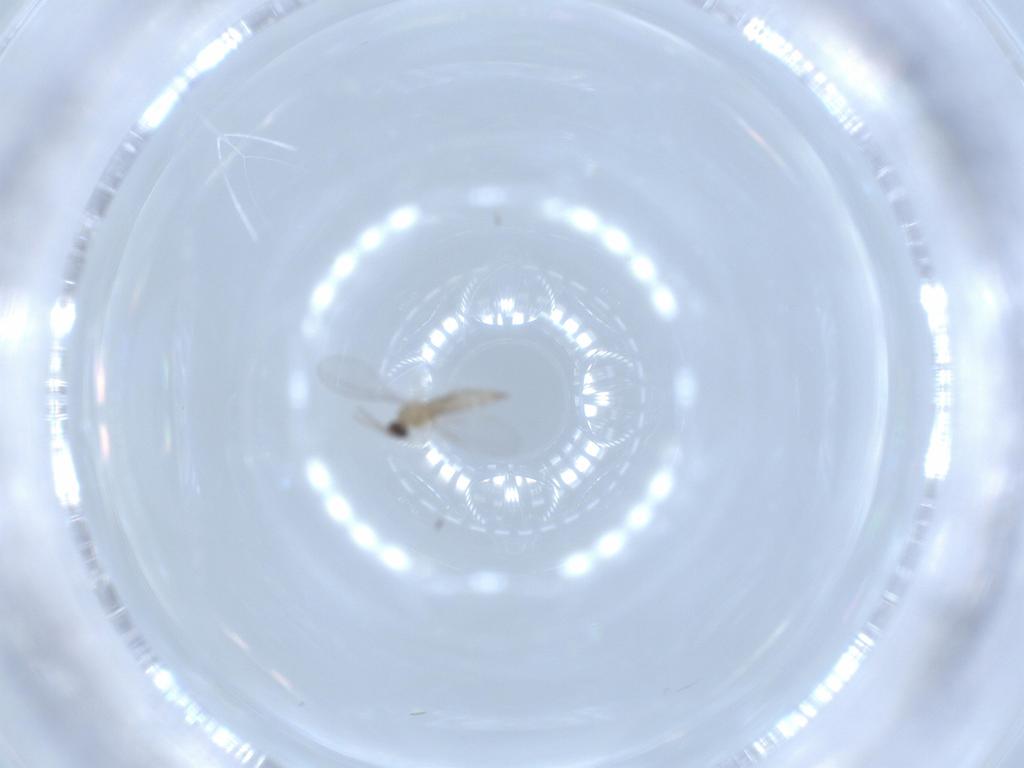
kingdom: Animalia
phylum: Arthropoda
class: Insecta
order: Diptera
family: Cecidomyiidae
